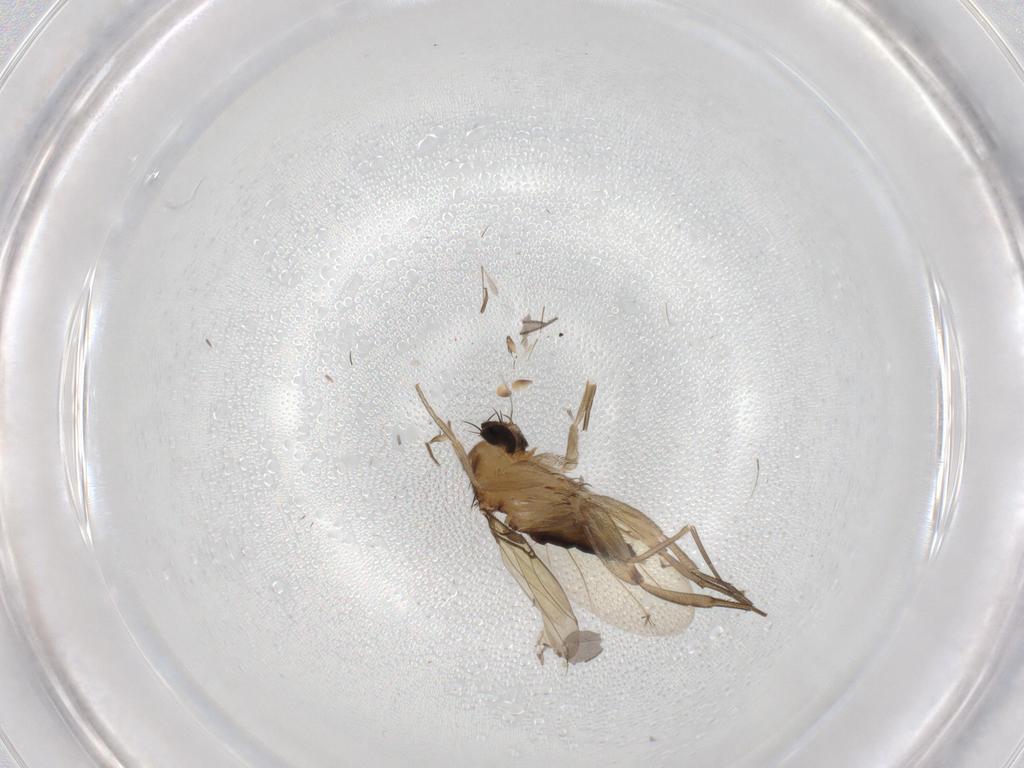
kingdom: Animalia
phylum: Arthropoda
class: Insecta
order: Diptera
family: Phoridae
